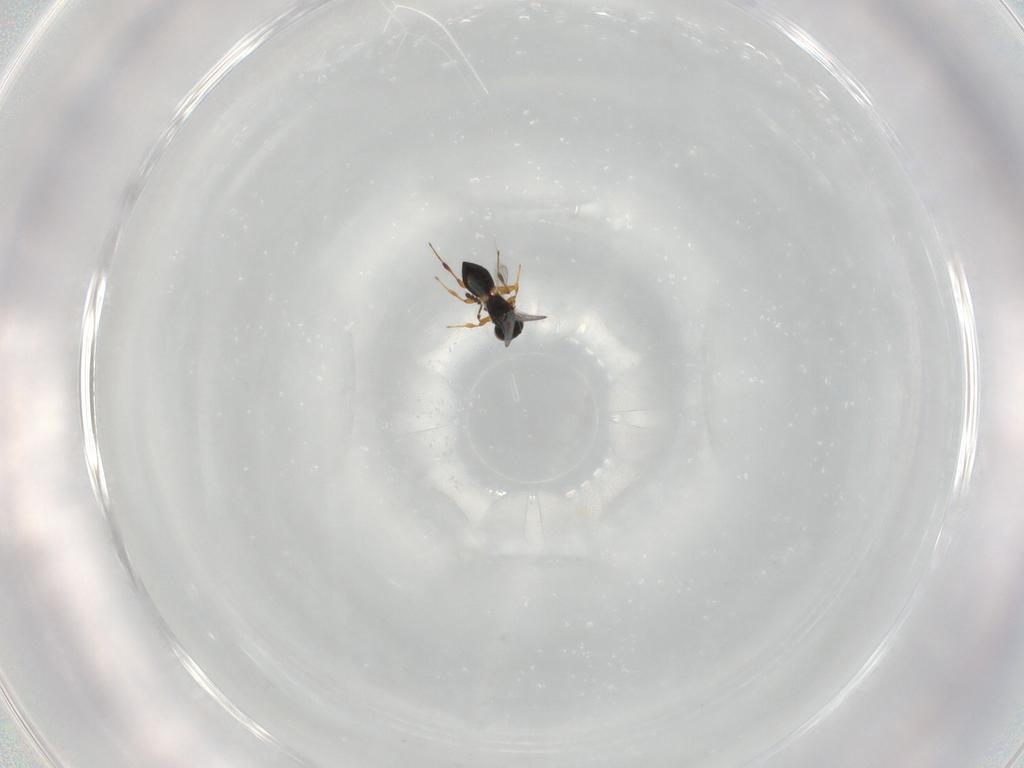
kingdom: Animalia
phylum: Arthropoda
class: Insecta
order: Hymenoptera
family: Platygastridae
